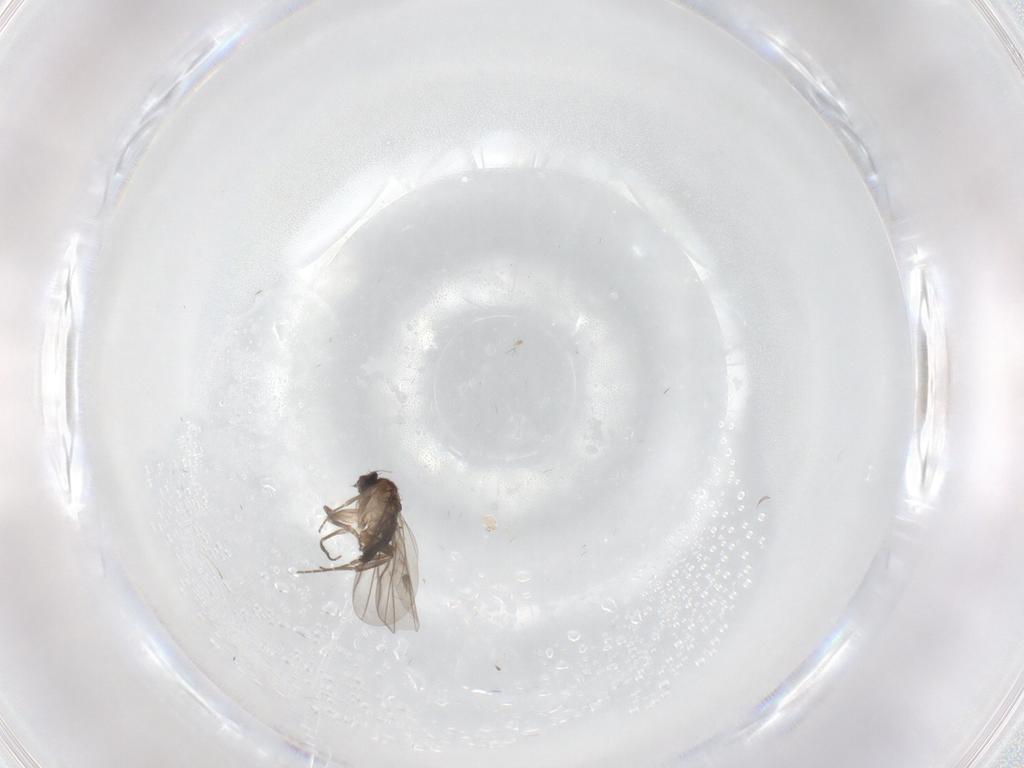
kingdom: Animalia
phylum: Arthropoda
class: Insecta
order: Diptera
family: Phoridae
